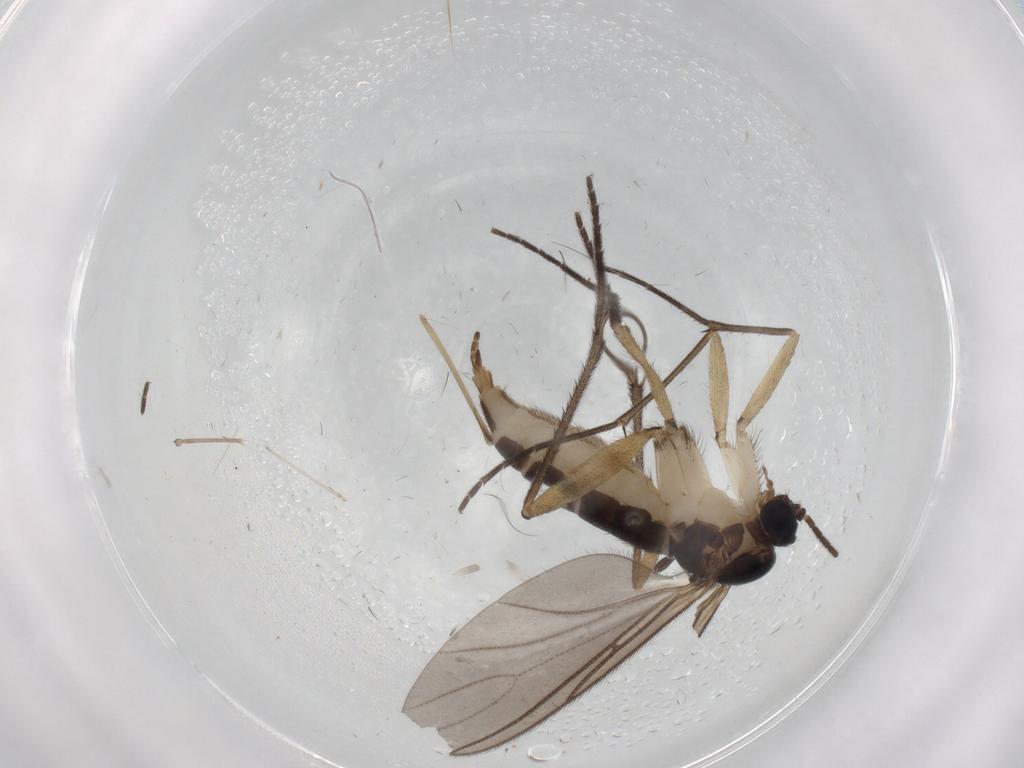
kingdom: Animalia
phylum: Arthropoda
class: Insecta
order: Diptera
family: Sciaridae
